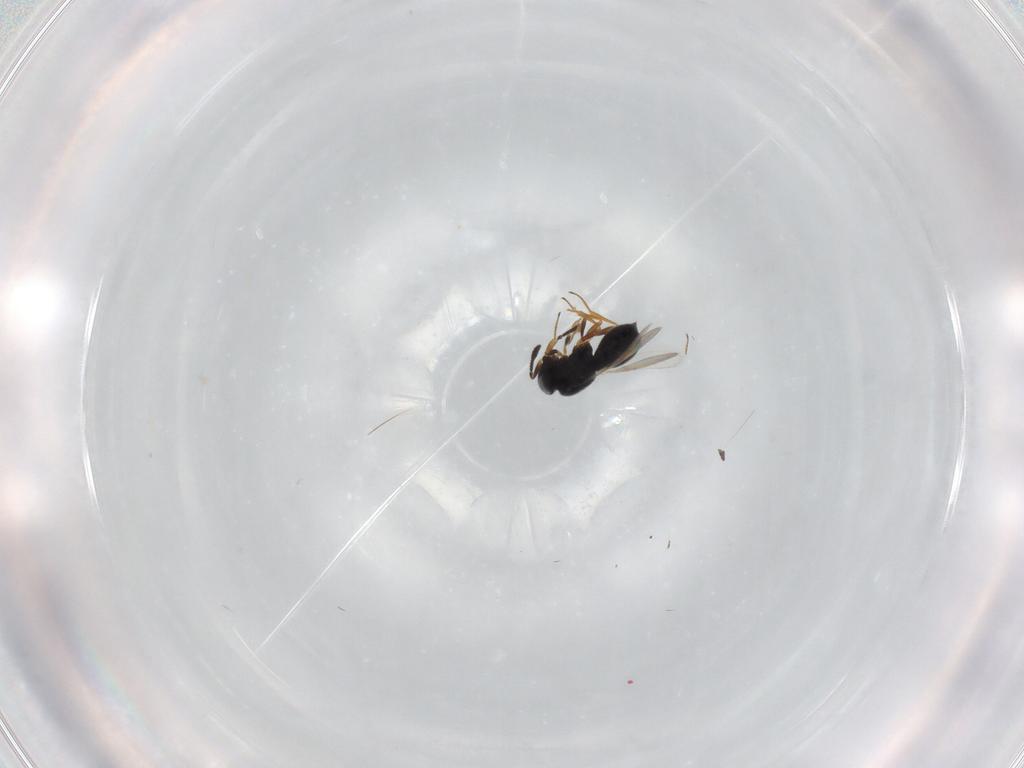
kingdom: Animalia
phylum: Arthropoda
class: Insecta
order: Hymenoptera
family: Scelionidae
